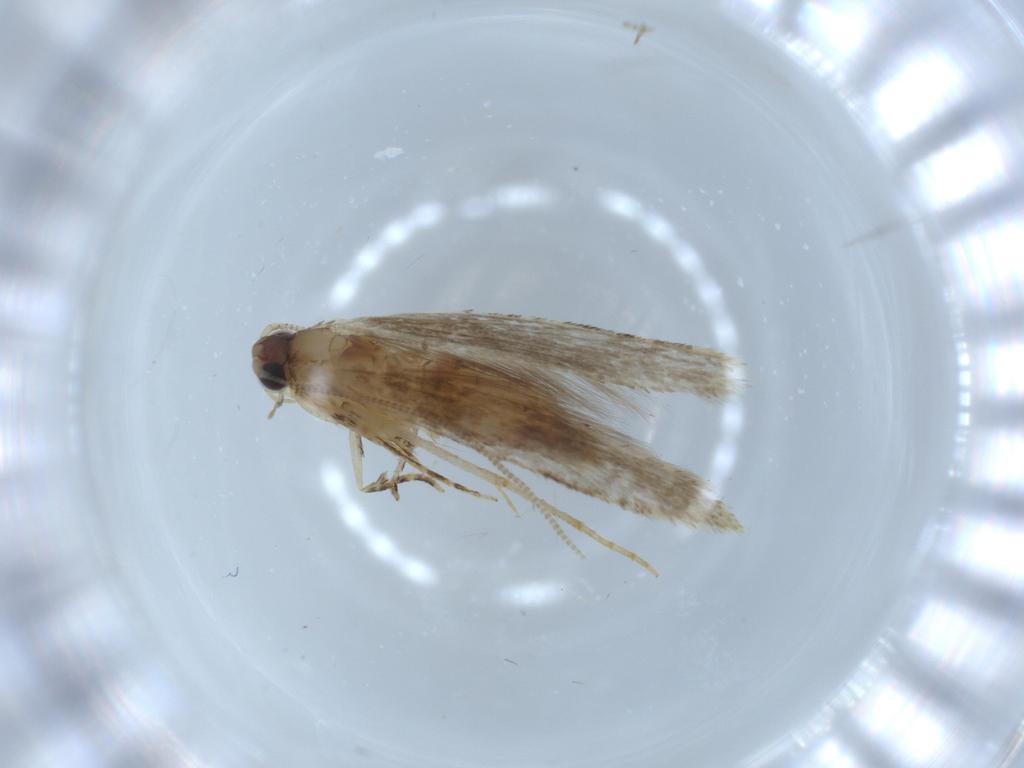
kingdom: Animalia
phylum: Arthropoda
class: Insecta
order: Lepidoptera
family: Tineidae
